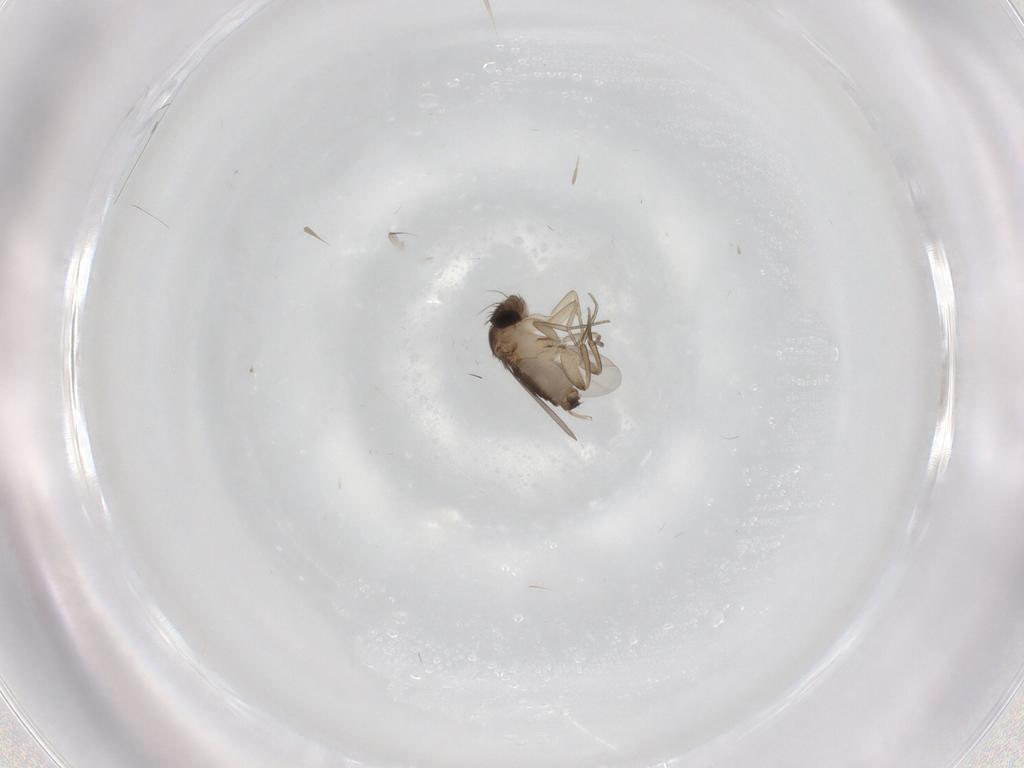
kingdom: Animalia
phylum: Arthropoda
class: Insecta
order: Diptera
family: Phoridae
